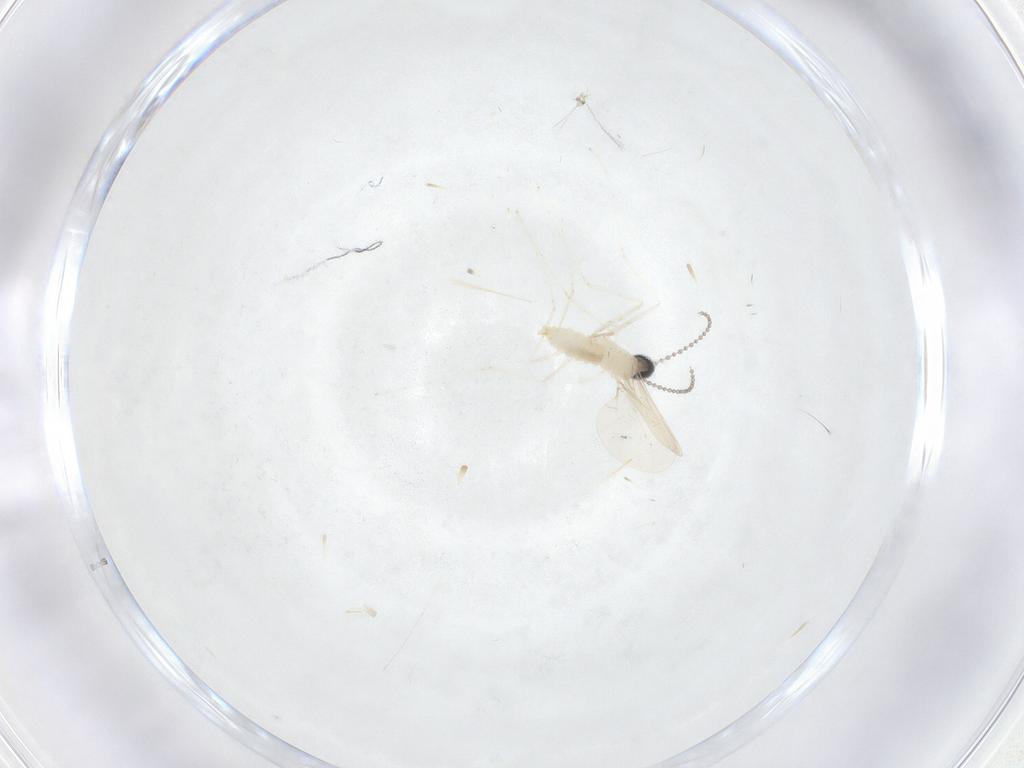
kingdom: Animalia
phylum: Arthropoda
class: Insecta
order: Diptera
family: Cecidomyiidae
